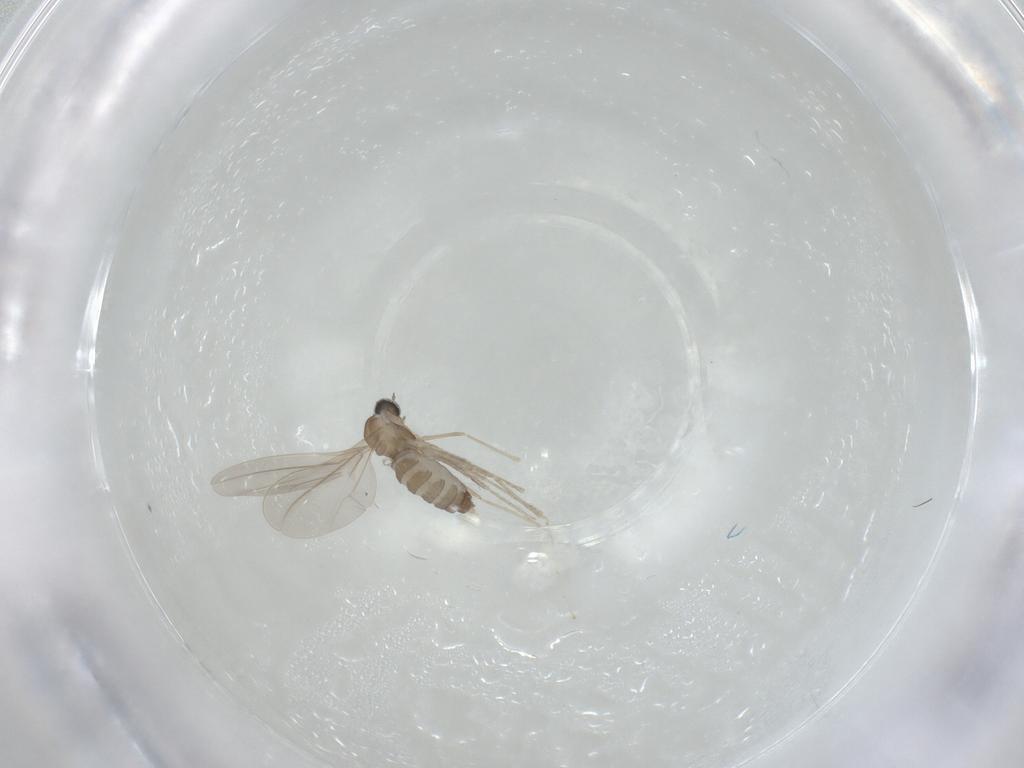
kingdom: Animalia
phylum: Arthropoda
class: Insecta
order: Diptera
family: Cecidomyiidae
